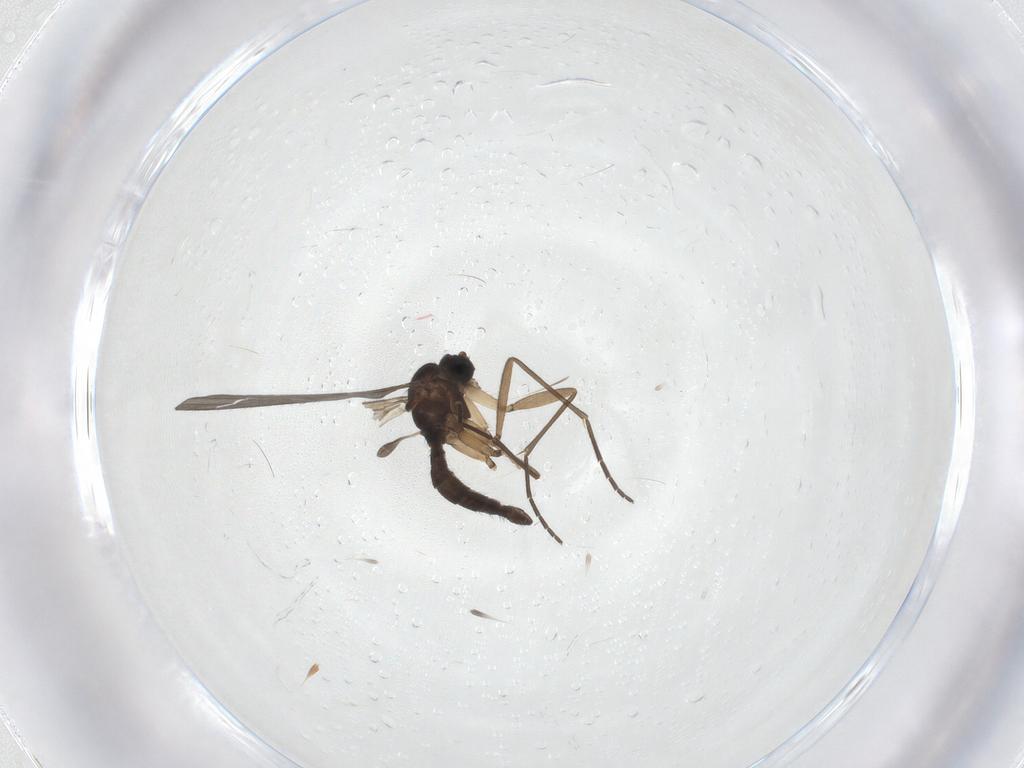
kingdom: Animalia
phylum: Arthropoda
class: Insecta
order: Diptera
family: Chironomidae
